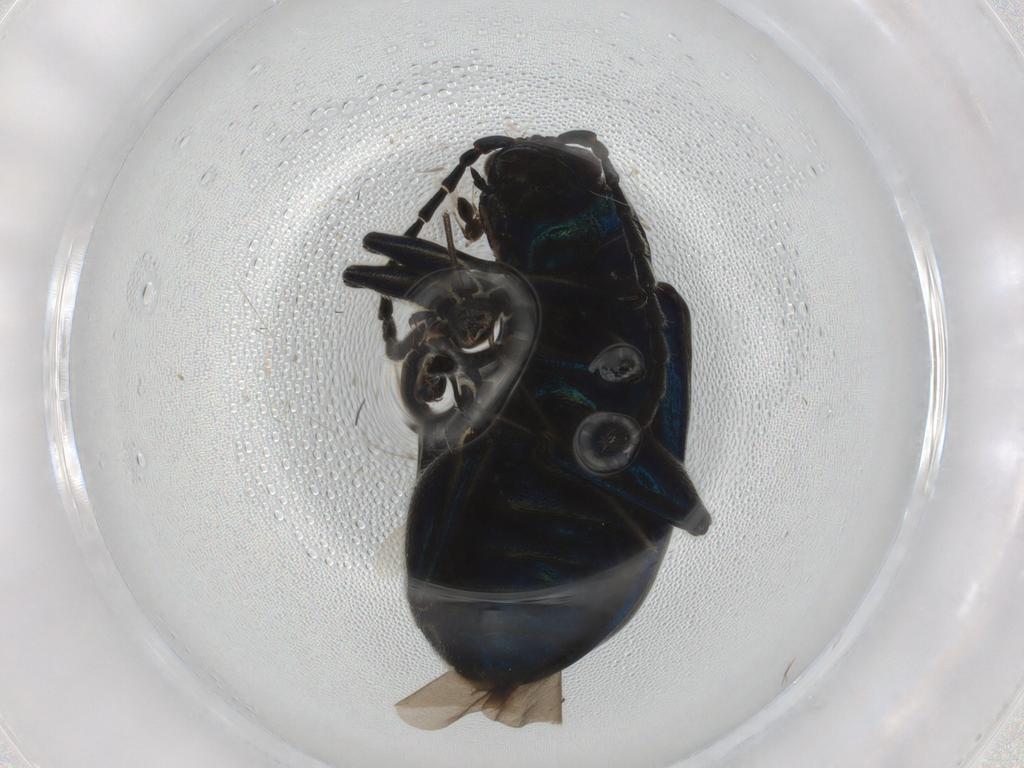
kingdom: Animalia
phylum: Arthropoda
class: Insecta
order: Coleoptera
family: Chrysomelidae
